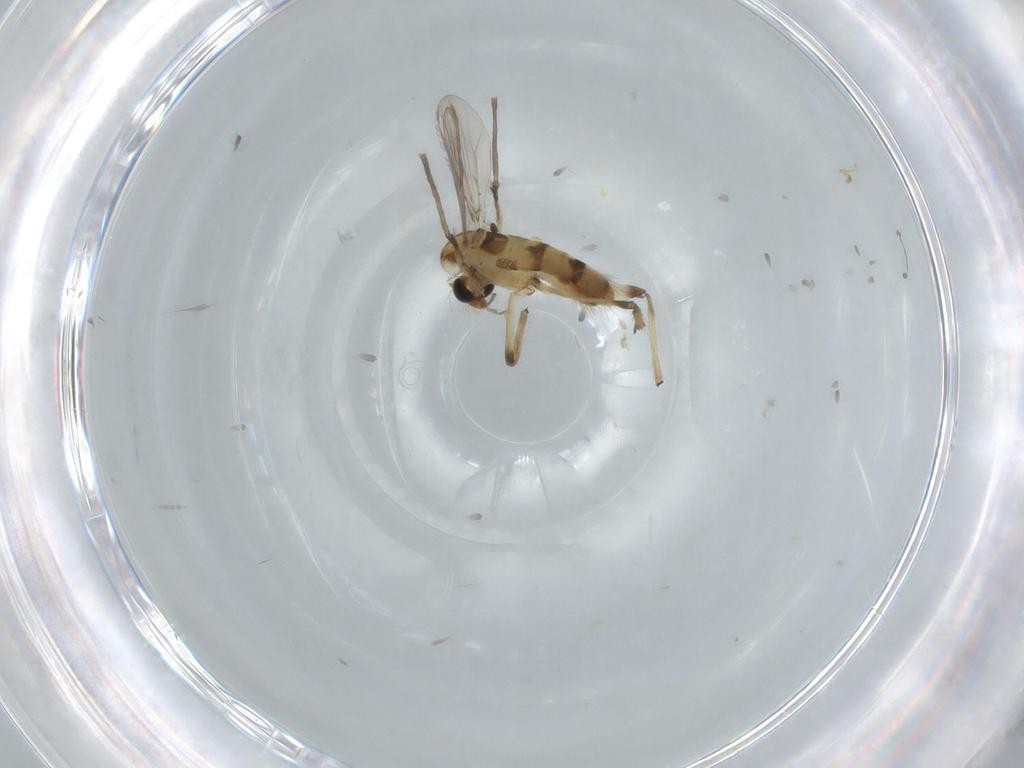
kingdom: Animalia
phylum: Arthropoda
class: Insecta
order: Diptera
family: Chironomidae
